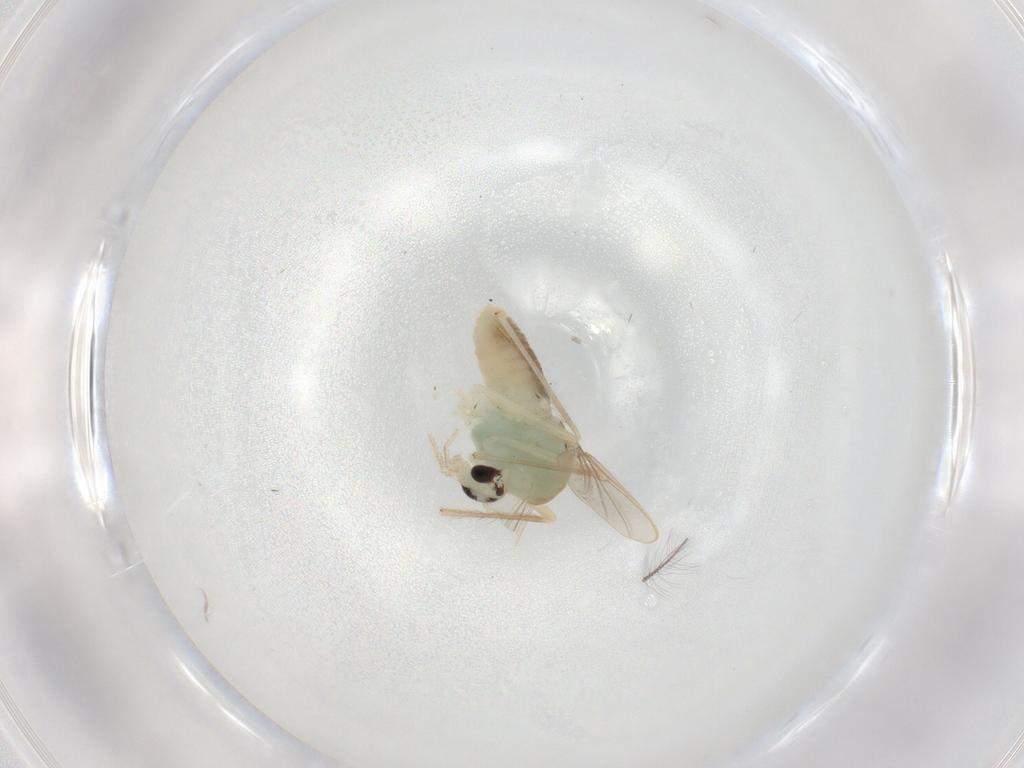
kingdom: Animalia
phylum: Arthropoda
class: Insecta
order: Diptera
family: Chironomidae
